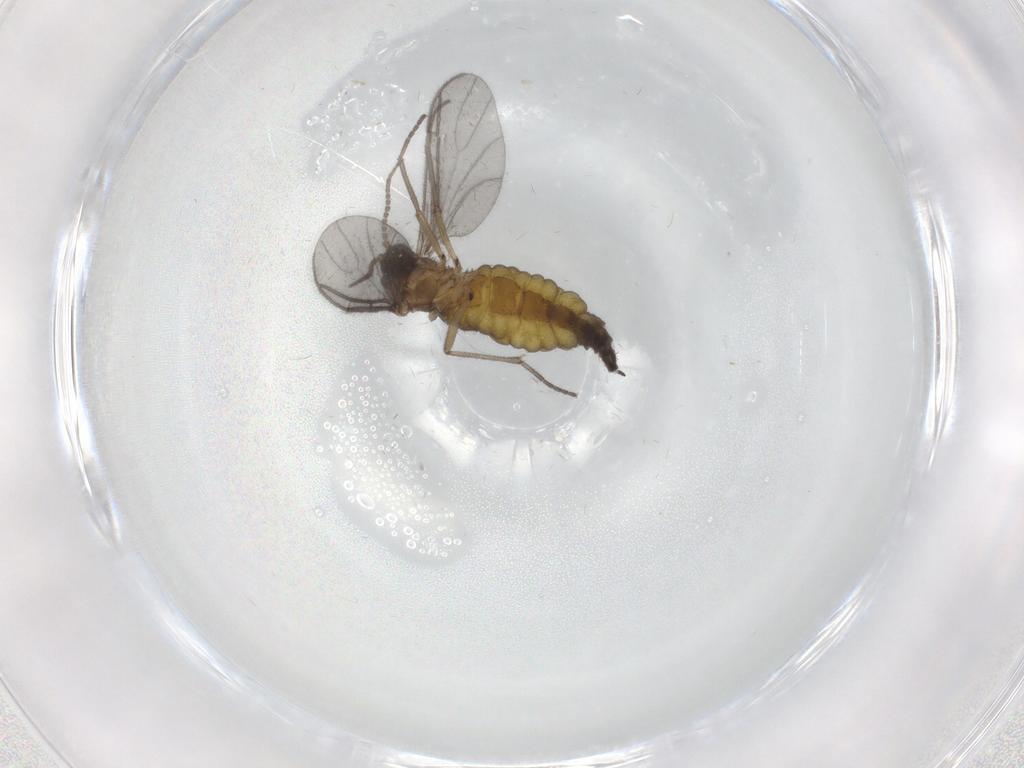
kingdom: Animalia
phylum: Arthropoda
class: Insecta
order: Diptera
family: Sciaridae
